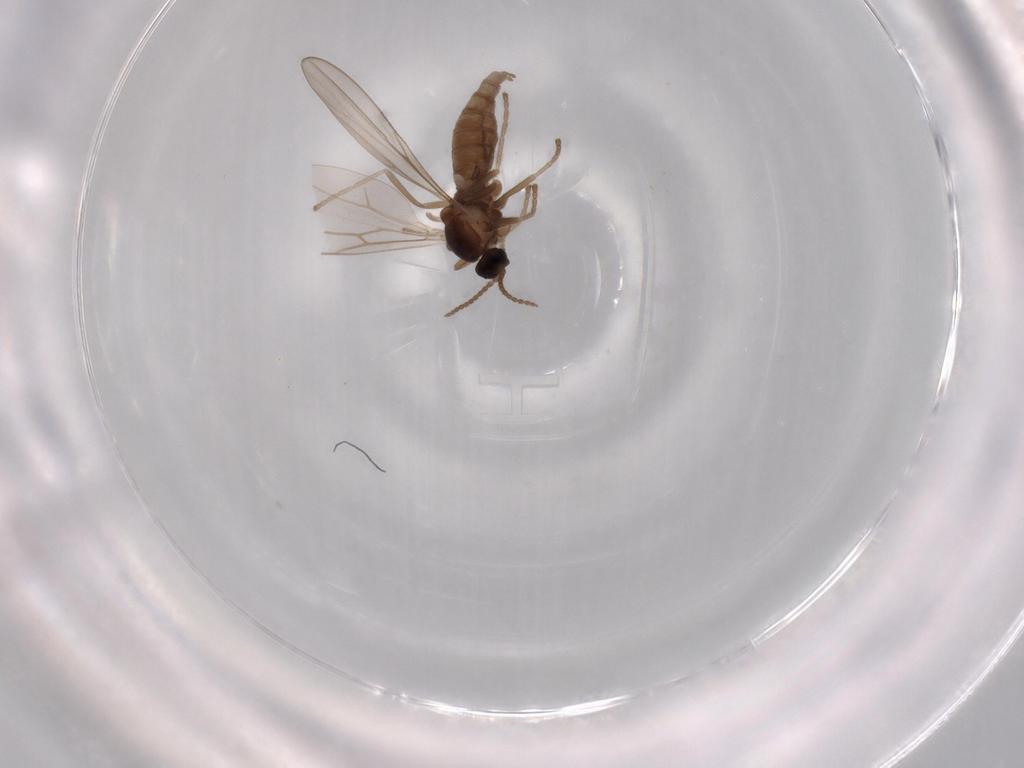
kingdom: Animalia
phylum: Arthropoda
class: Insecta
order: Diptera
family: Cecidomyiidae
